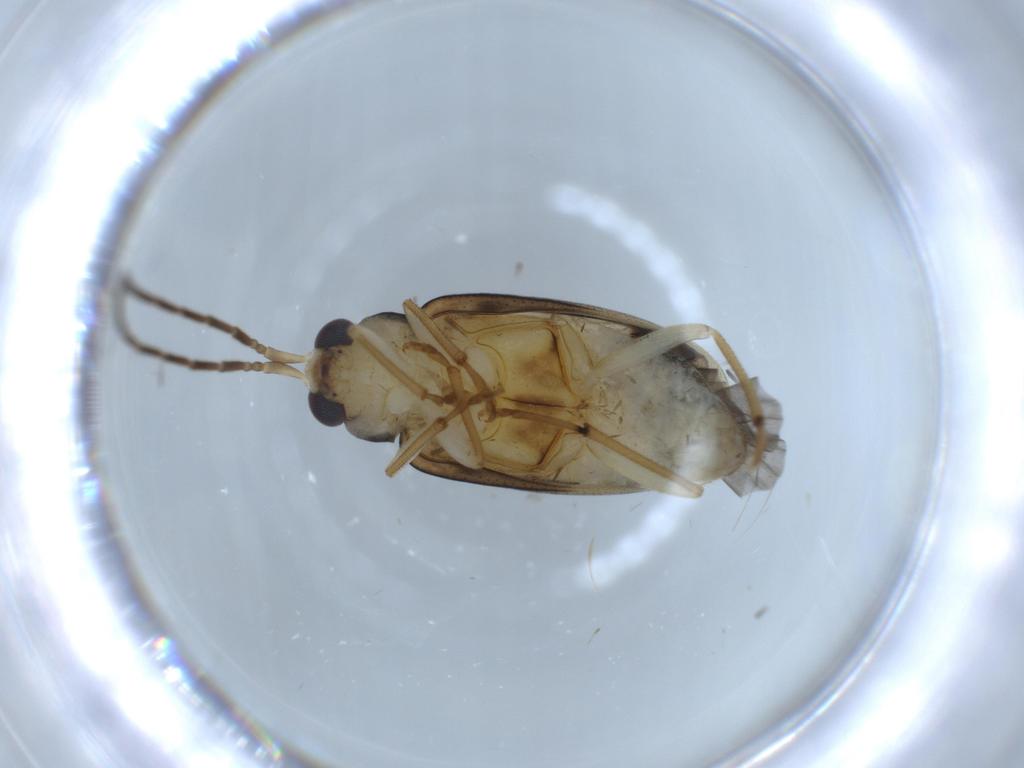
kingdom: Animalia
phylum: Arthropoda
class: Insecta
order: Coleoptera
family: Chrysomelidae
